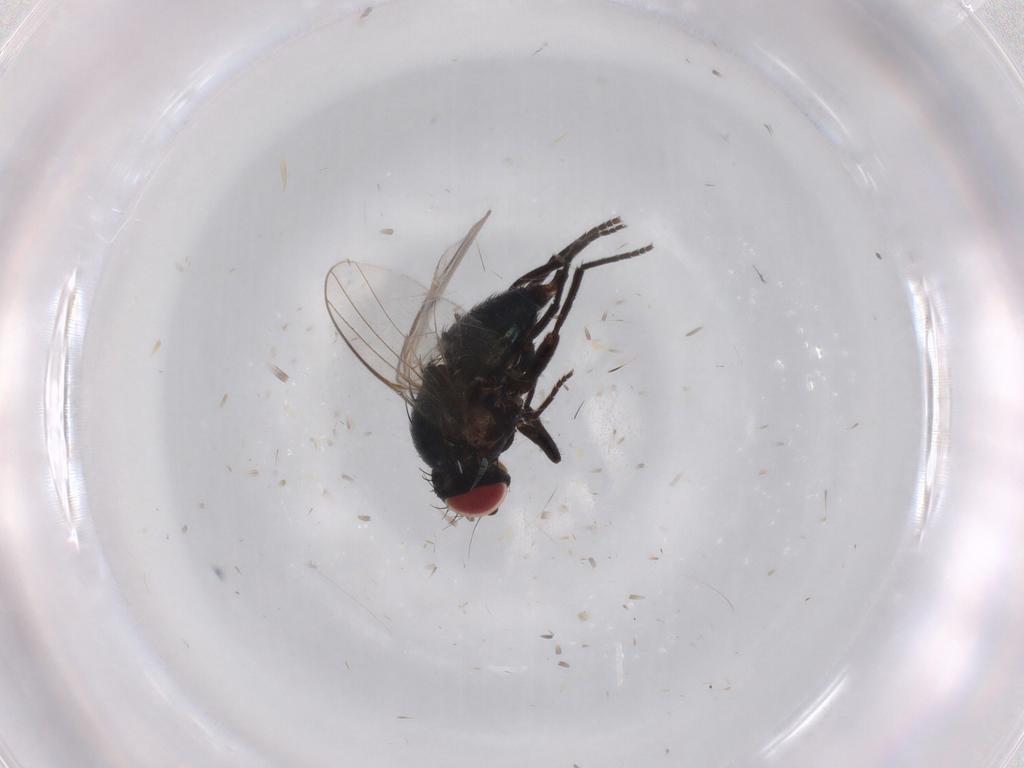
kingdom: Animalia
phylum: Arthropoda
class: Insecta
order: Diptera
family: Agromyzidae
